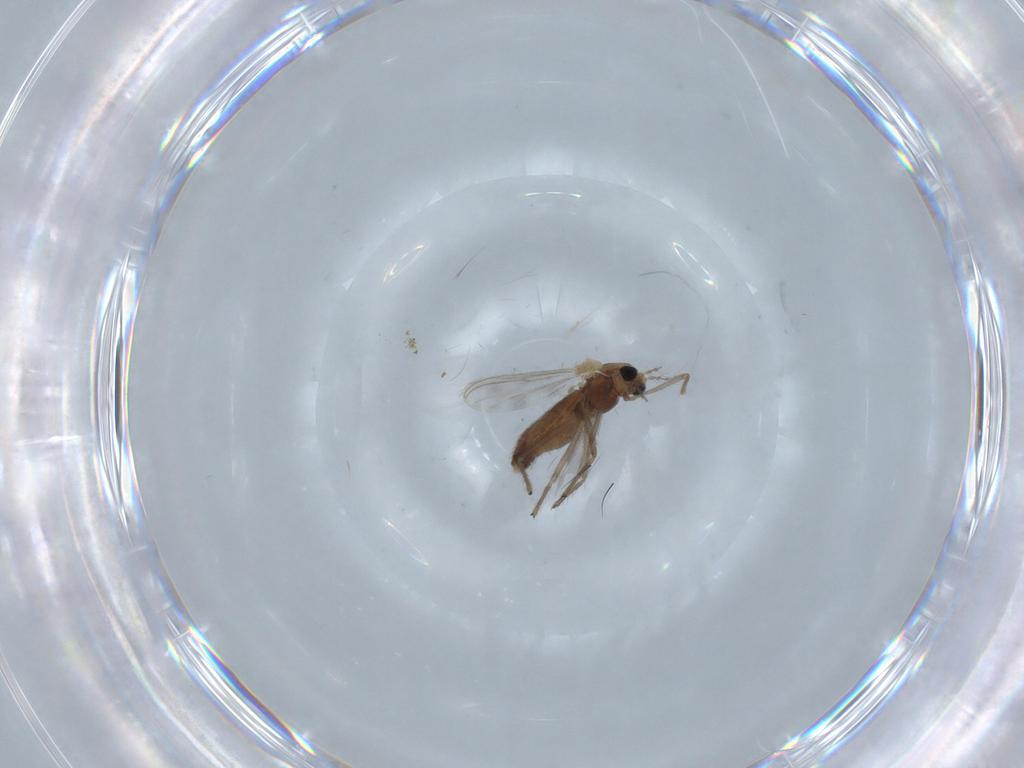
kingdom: Animalia
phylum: Arthropoda
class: Insecta
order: Diptera
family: Chironomidae
